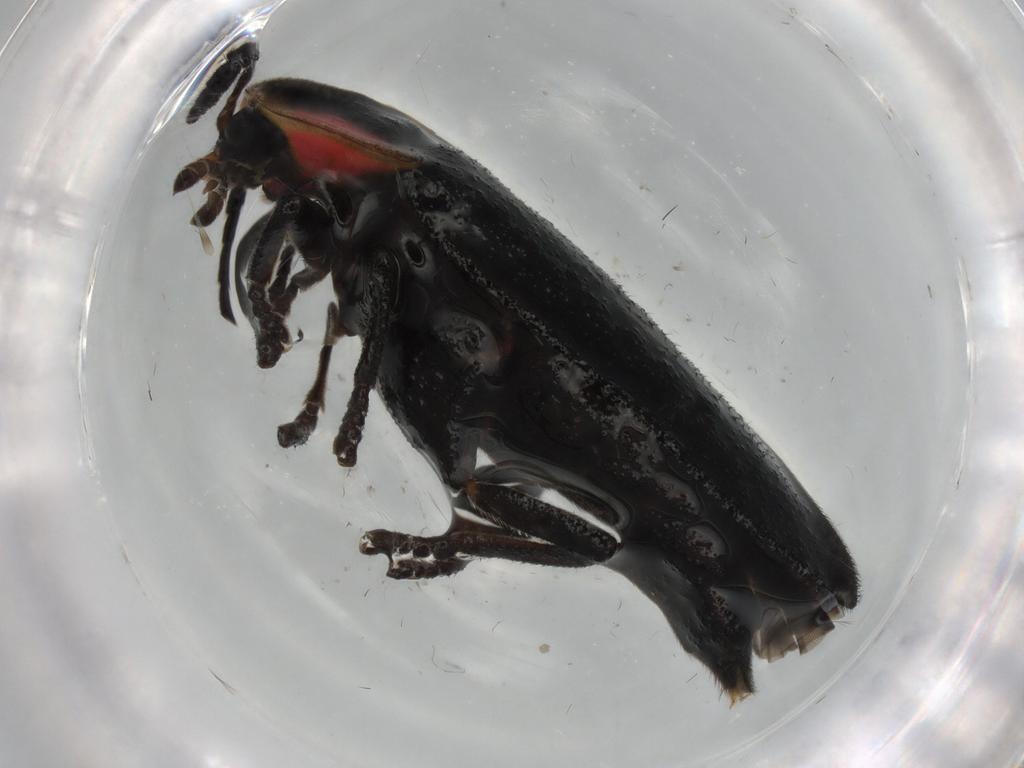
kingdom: Animalia
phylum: Arthropoda
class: Insecta
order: Coleoptera
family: Lampyridae
